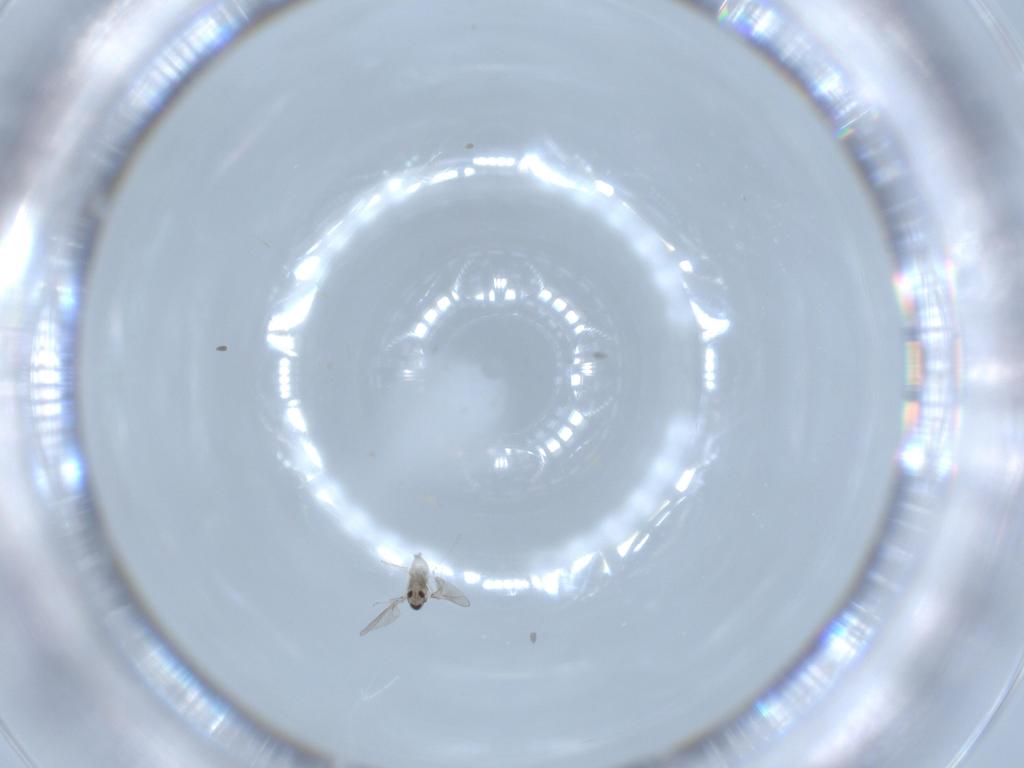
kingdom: Animalia
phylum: Arthropoda
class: Insecta
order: Diptera
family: Cecidomyiidae
